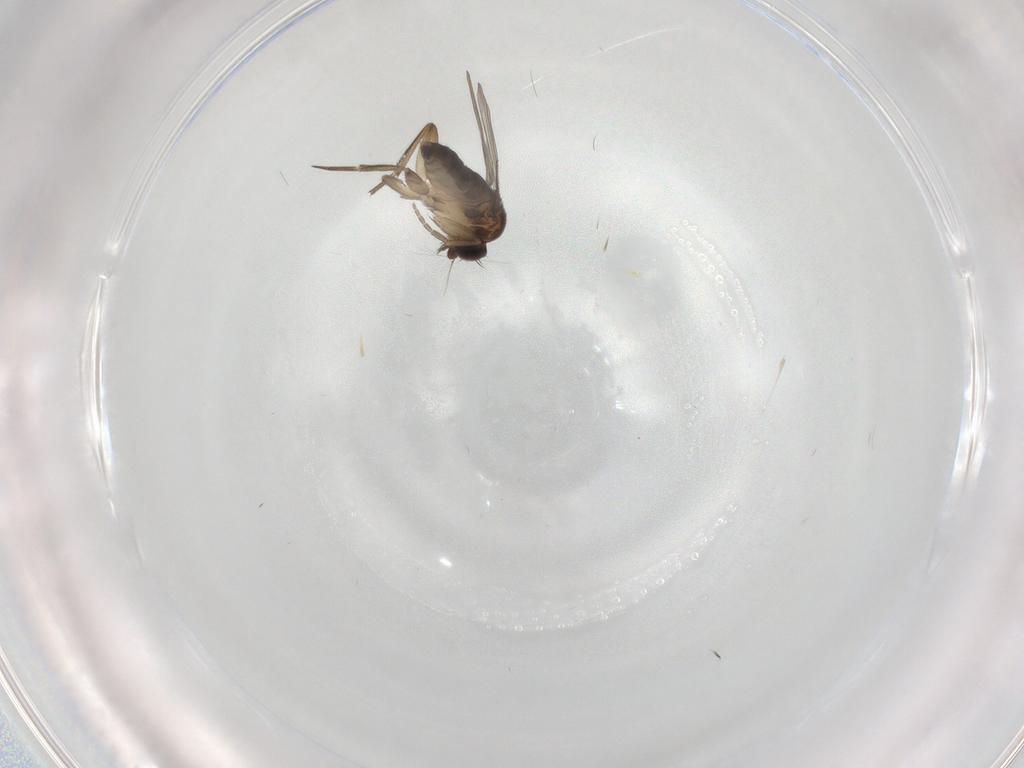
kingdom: Animalia
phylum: Arthropoda
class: Insecta
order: Diptera
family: Phoridae
